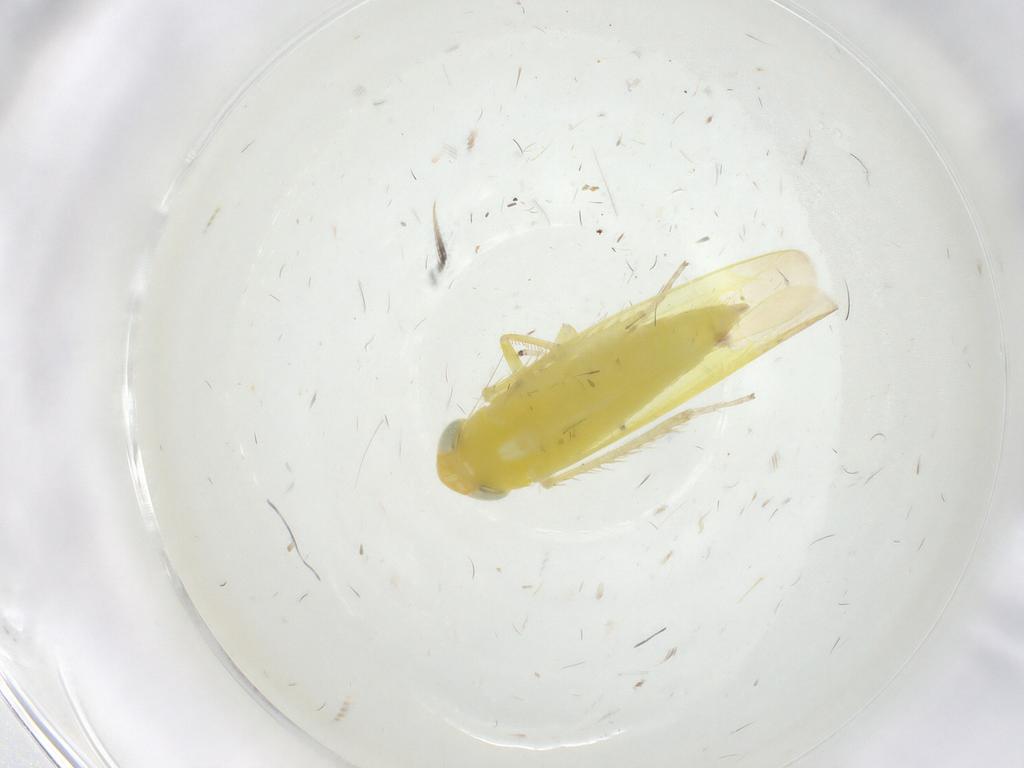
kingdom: Animalia
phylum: Arthropoda
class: Insecta
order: Hemiptera
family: Cicadellidae
